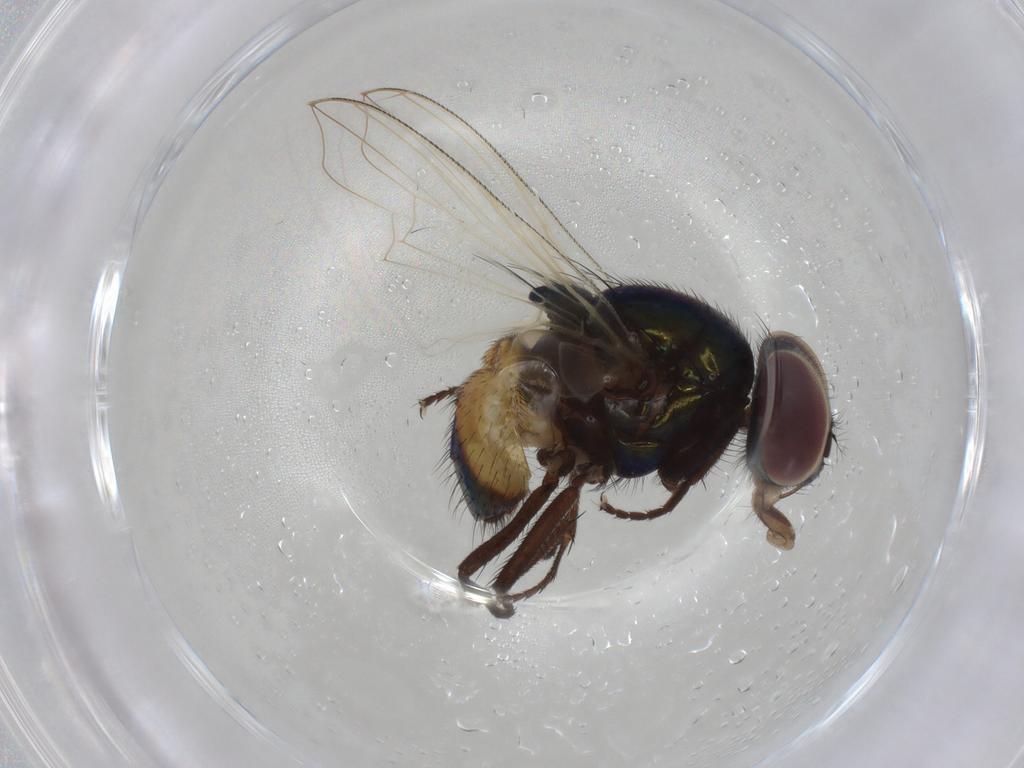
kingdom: Animalia
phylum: Arthropoda
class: Insecta
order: Diptera
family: Muscidae
